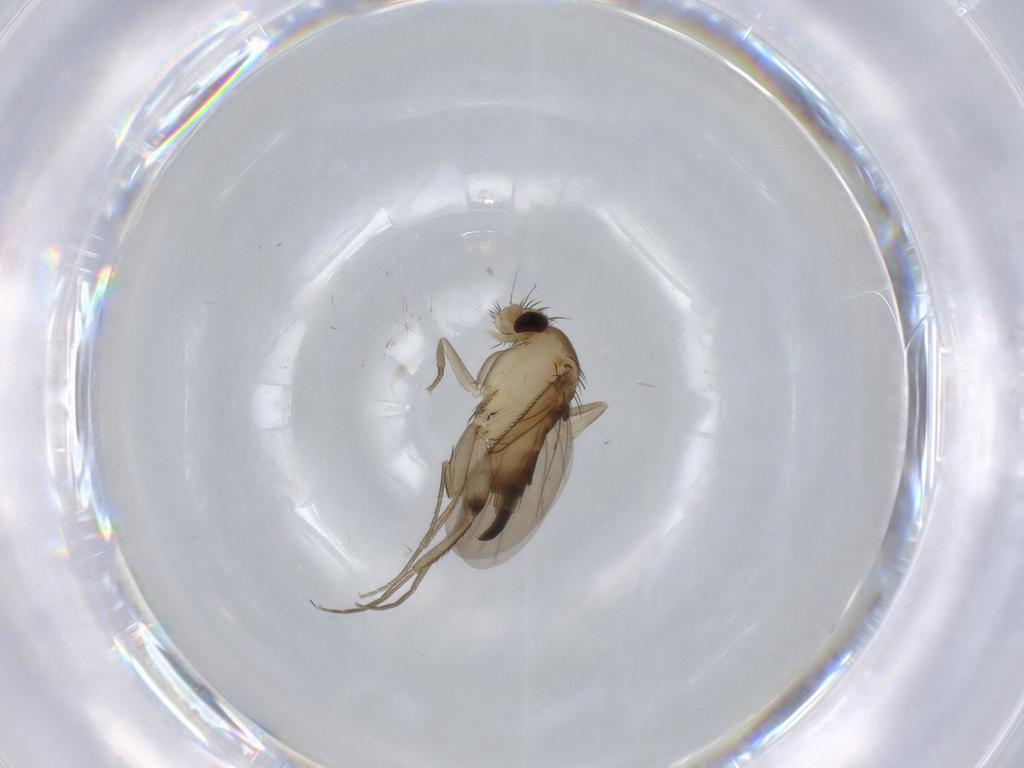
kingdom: Animalia
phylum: Arthropoda
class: Insecta
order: Diptera
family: Phoridae
